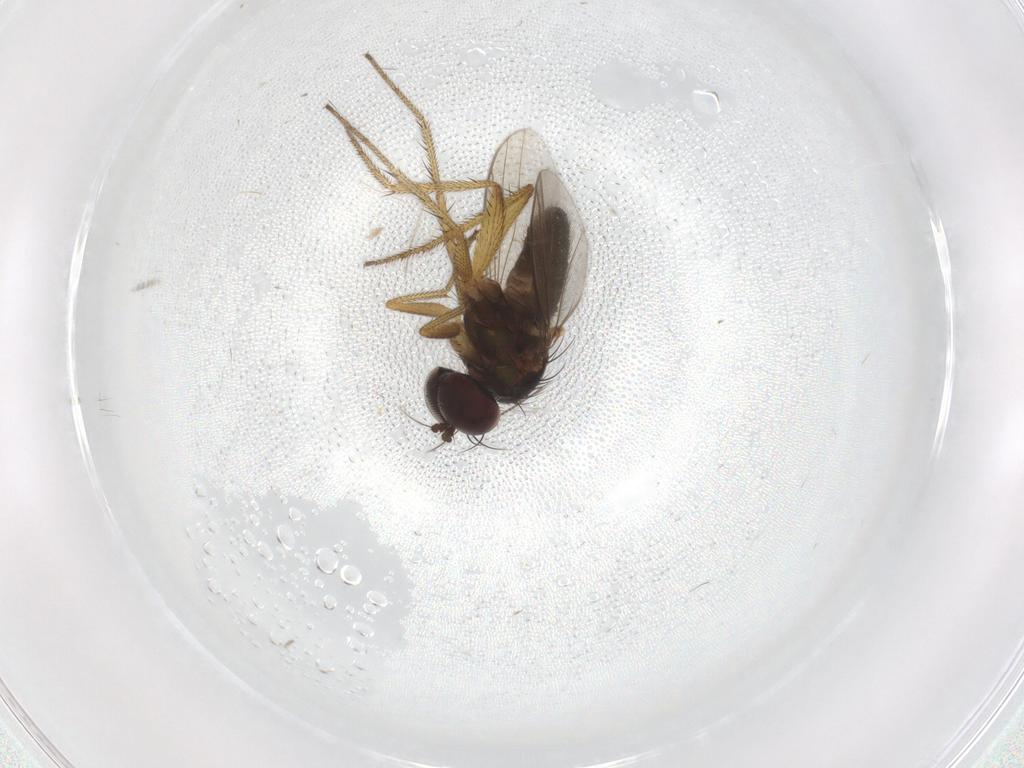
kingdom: Animalia
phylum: Arthropoda
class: Insecta
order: Diptera
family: Dolichopodidae
